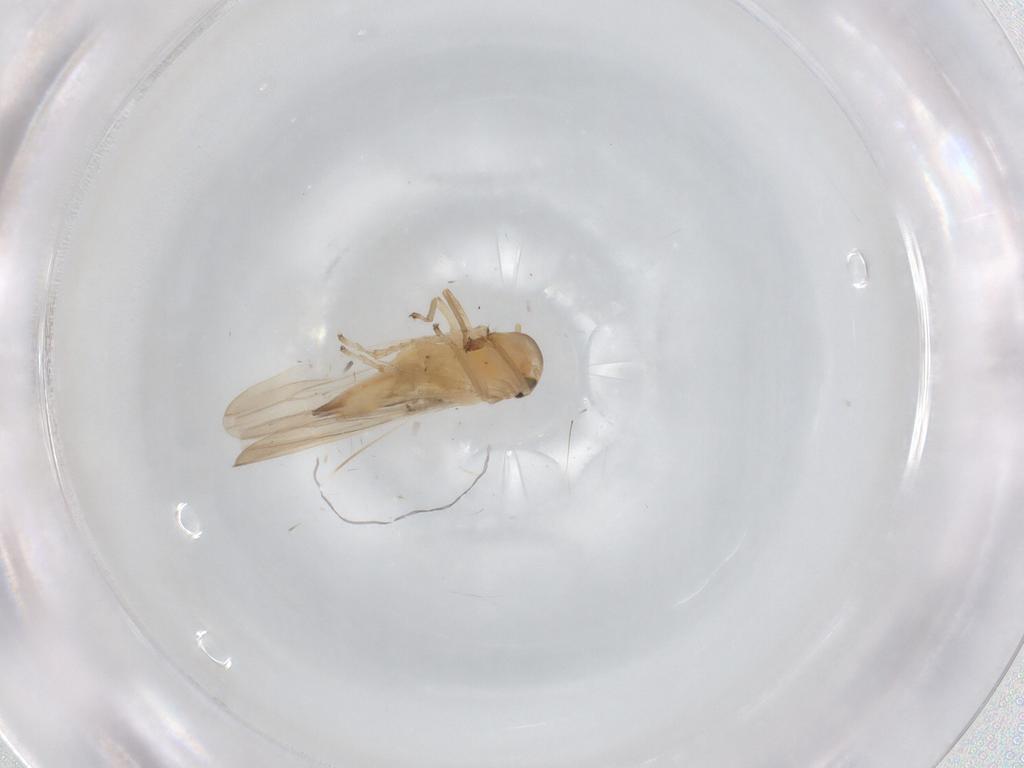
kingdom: Animalia
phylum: Arthropoda
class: Insecta
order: Hemiptera
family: Cicadellidae
